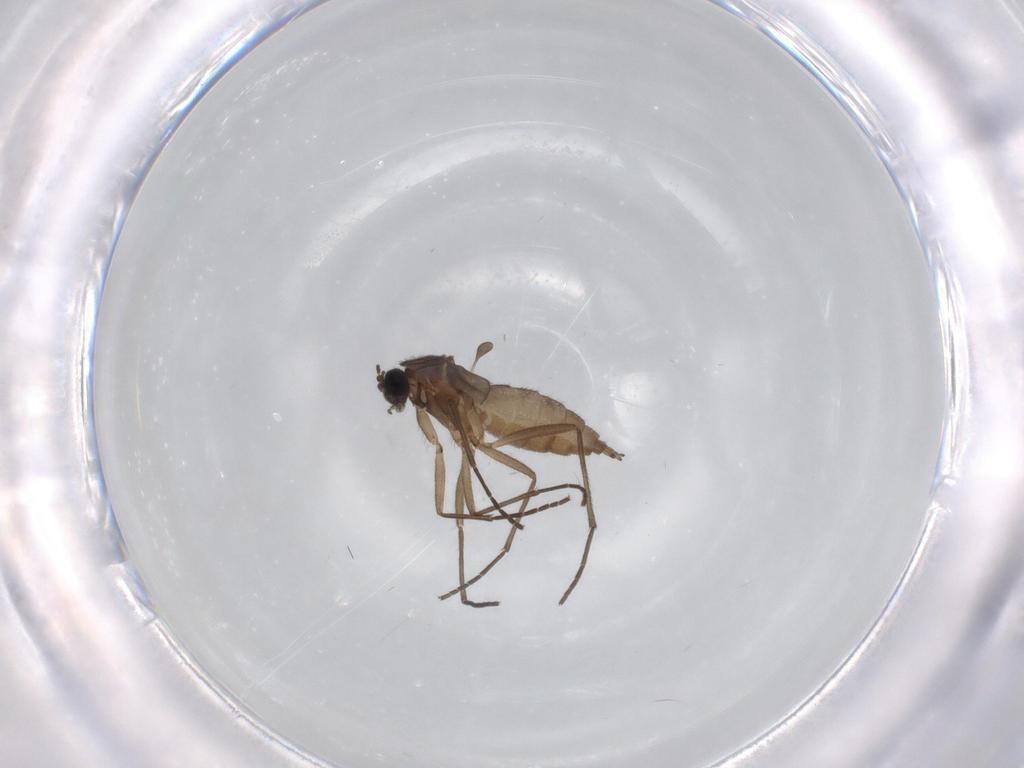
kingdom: Animalia
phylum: Arthropoda
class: Insecta
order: Diptera
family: Sciaridae
